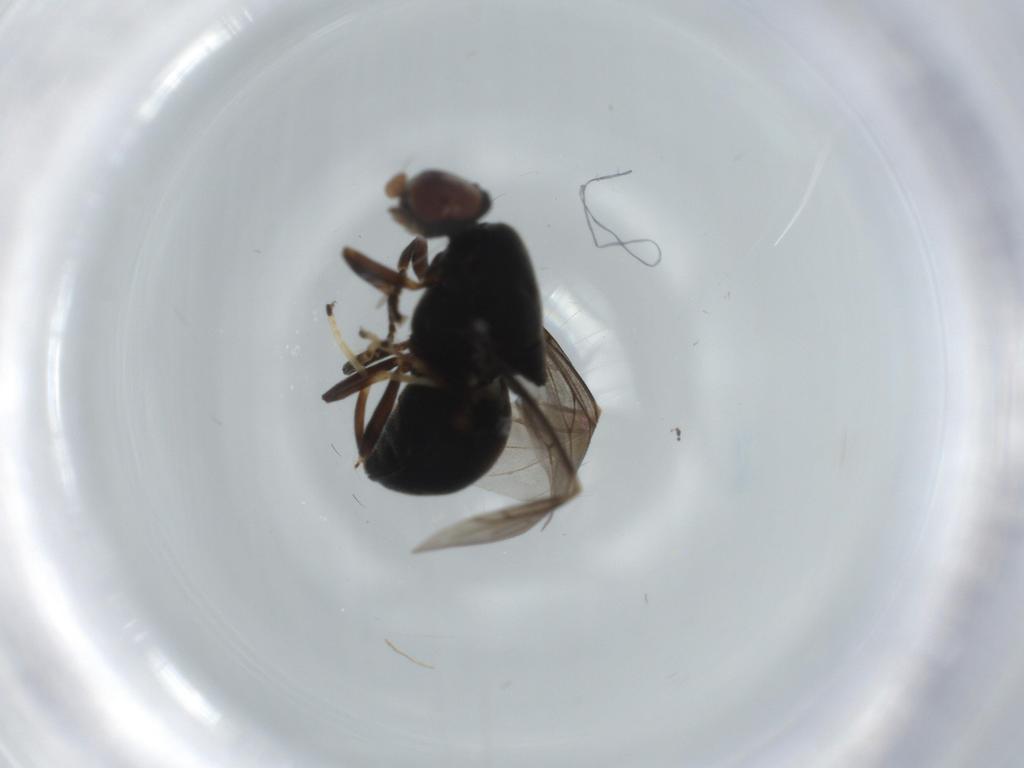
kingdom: Animalia
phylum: Arthropoda
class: Insecta
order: Diptera
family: Stratiomyidae
